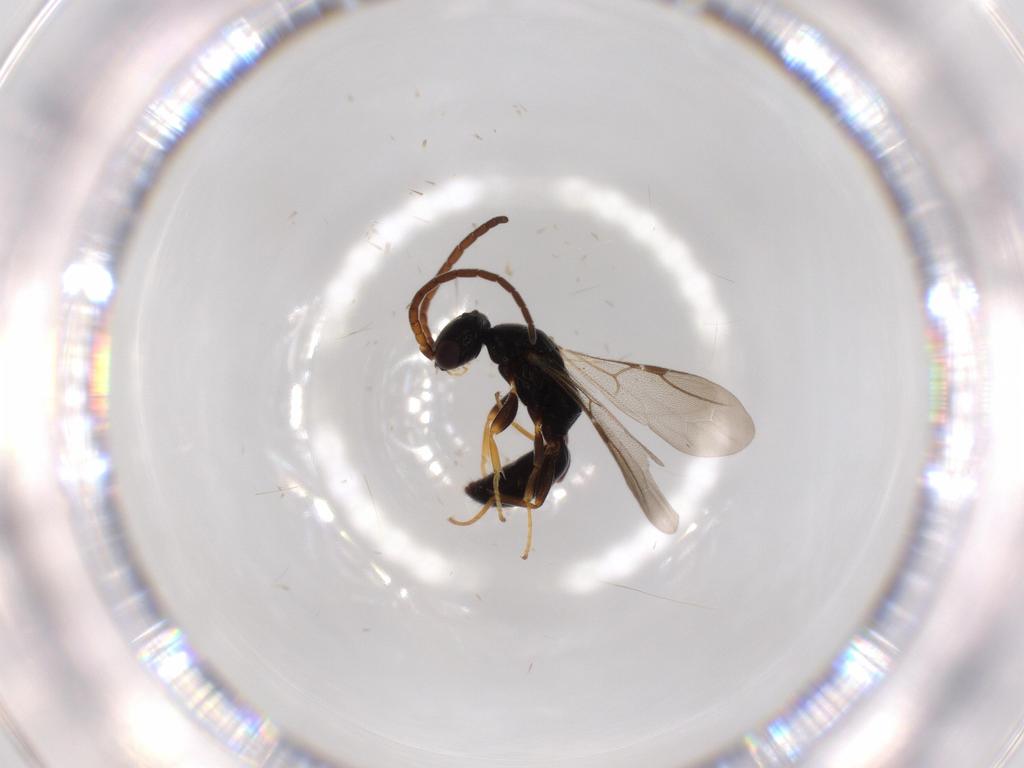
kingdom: Animalia
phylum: Arthropoda
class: Insecta
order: Hymenoptera
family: Bethylidae
